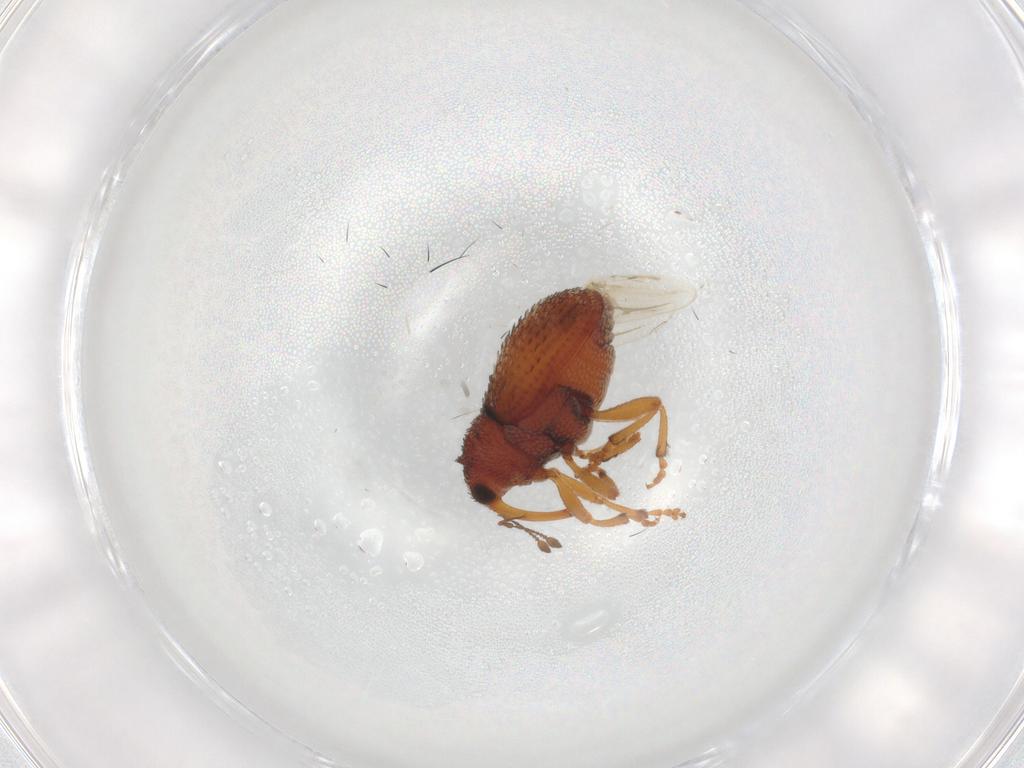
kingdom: Animalia
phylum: Arthropoda
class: Insecta
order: Coleoptera
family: Curculionidae
